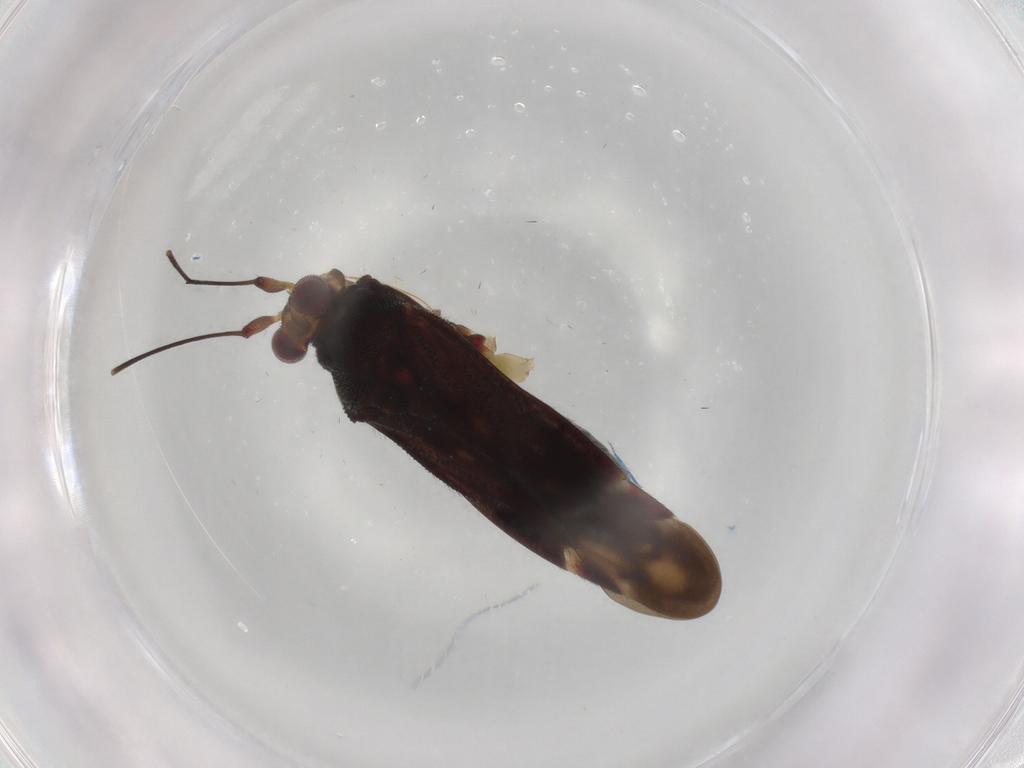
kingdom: Animalia
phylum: Arthropoda
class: Insecta
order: Hemiptera
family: Miridae
